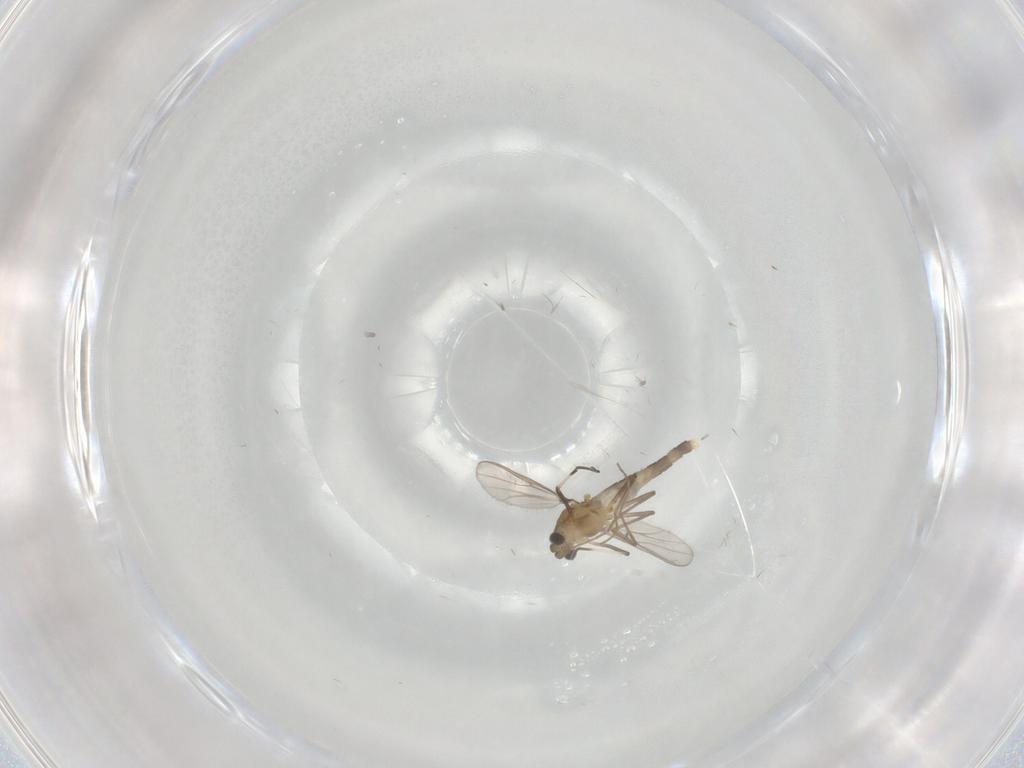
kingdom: Animalia
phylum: Arthropoda
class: Insecta
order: Diptera
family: Chironomidae
